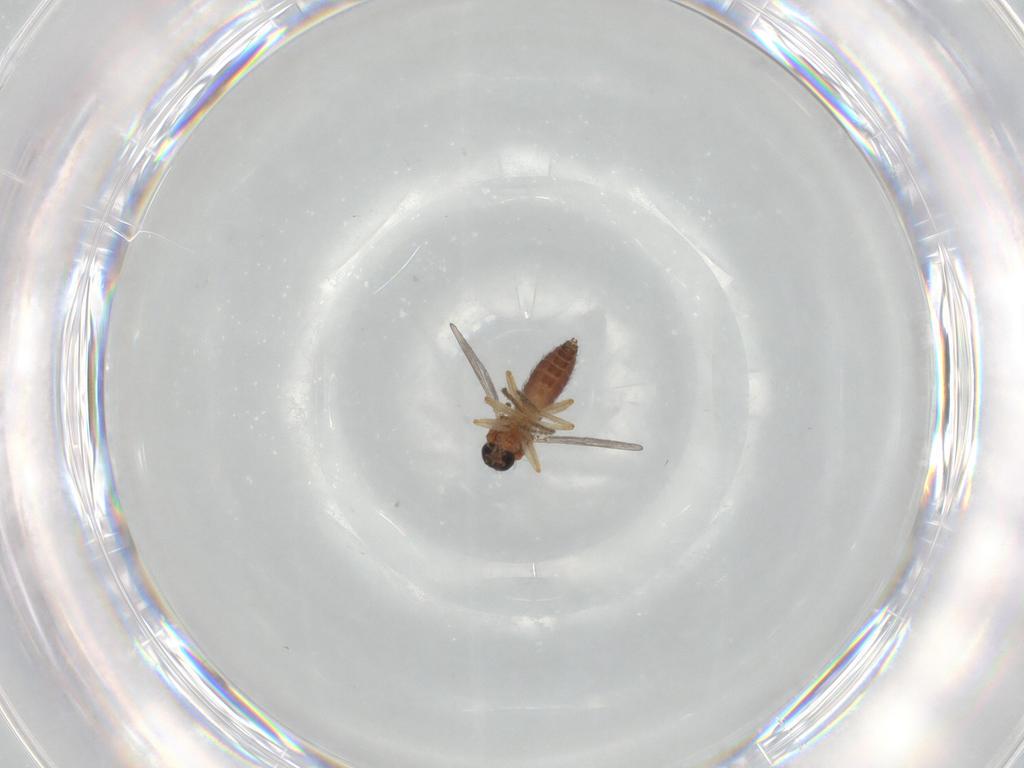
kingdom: Animalia
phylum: Arthropoda
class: Insecta
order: Diptera
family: Ceratopogonidae
